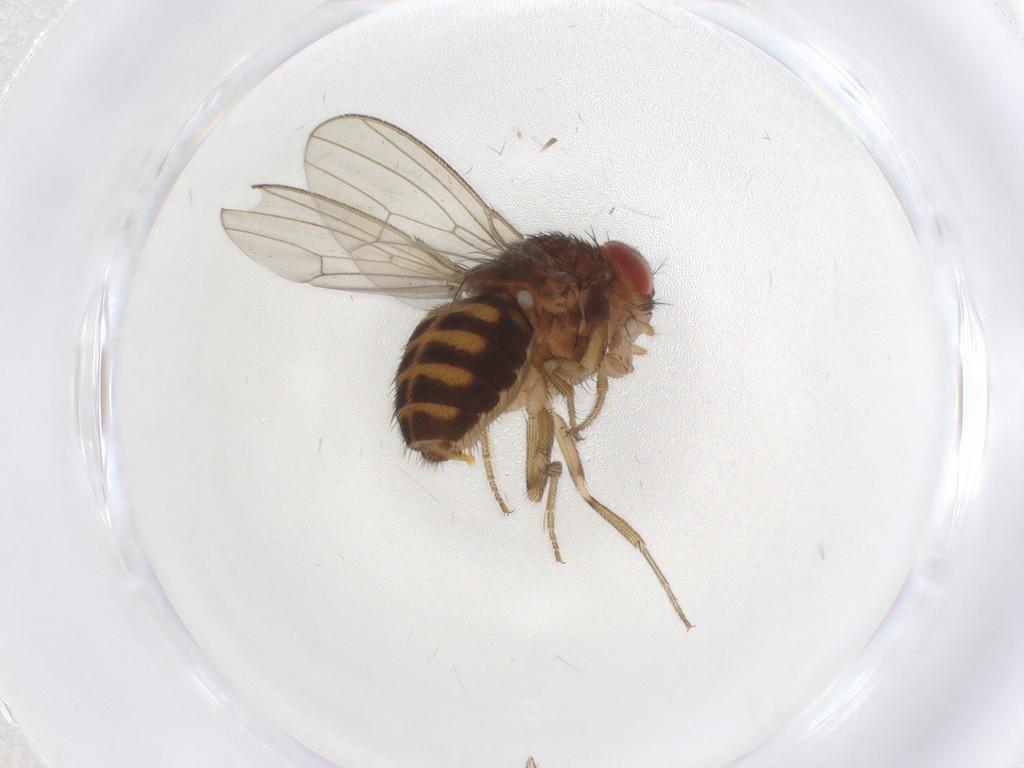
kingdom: Animalia
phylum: Arthropoda
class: Insecta
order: Diptera
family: Drosophilidae
